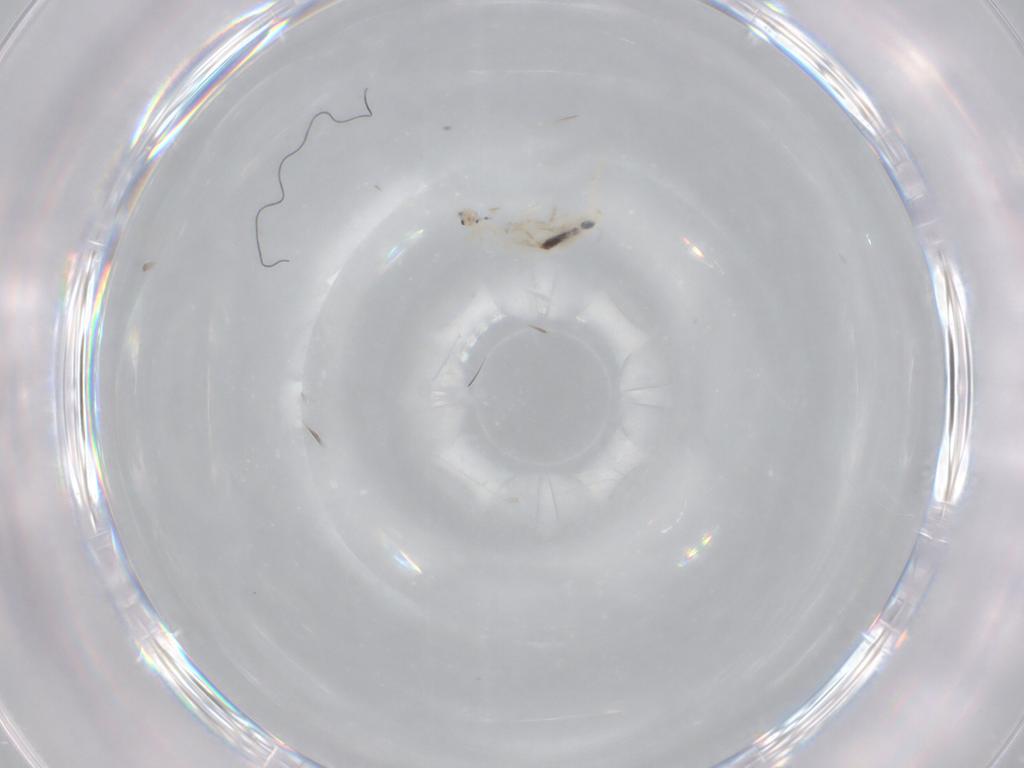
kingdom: Animalia
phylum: Arthropoda
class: Collembola
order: Entomobryomorpha
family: Entomobryidae
